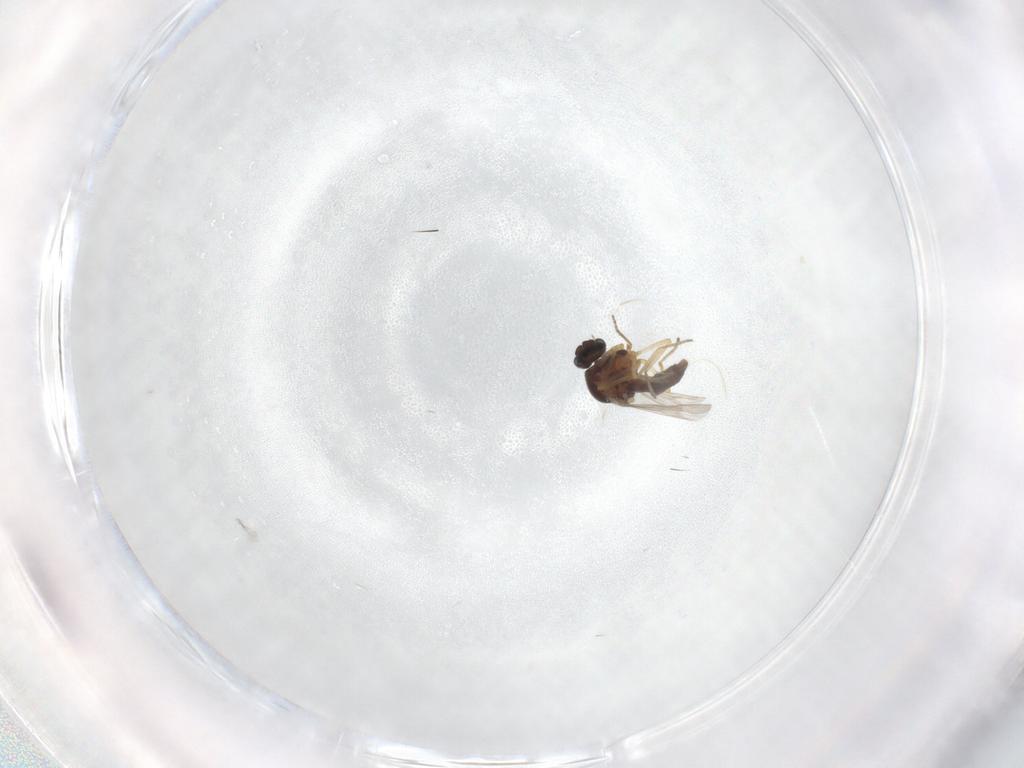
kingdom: Animalia
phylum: Arthropoda
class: Insecta
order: Diptera
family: Ceratopogonidae
